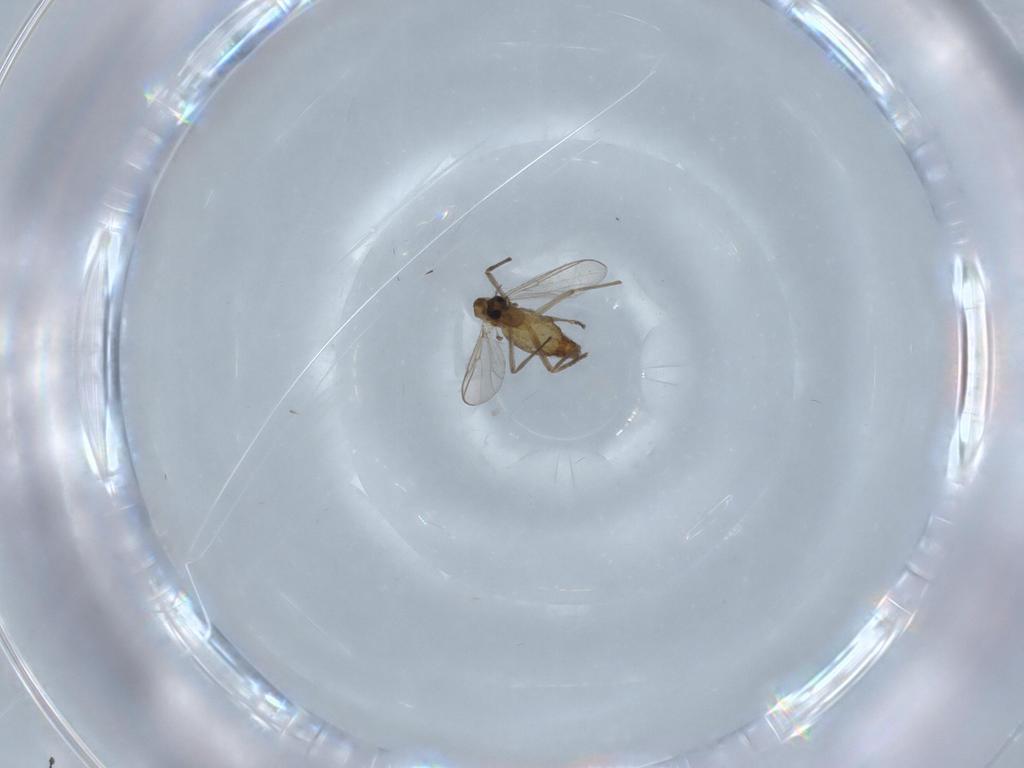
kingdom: Animalia
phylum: Arthropoda
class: Insecta
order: Diptera
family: Chironomidae
